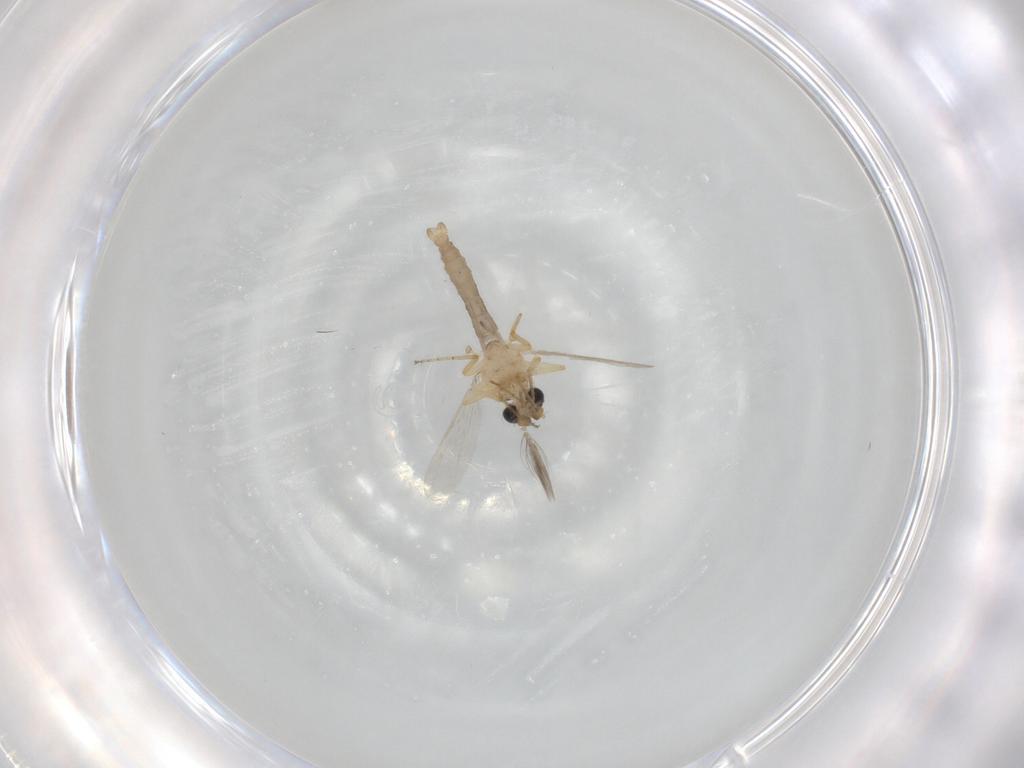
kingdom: Animalia
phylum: Arthropoda
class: Insecta
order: Diptera
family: Ceratopogonidae
